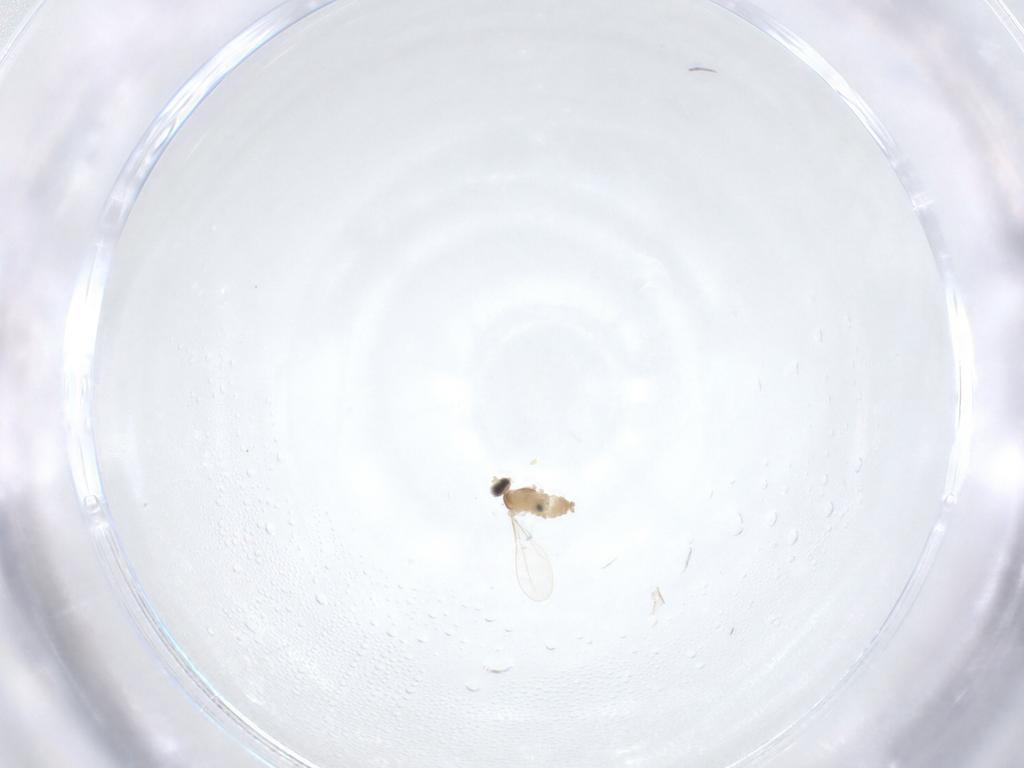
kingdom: Animalia
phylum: Arthropoda
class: Insecta
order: Diptera
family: Cecidomyiidae
